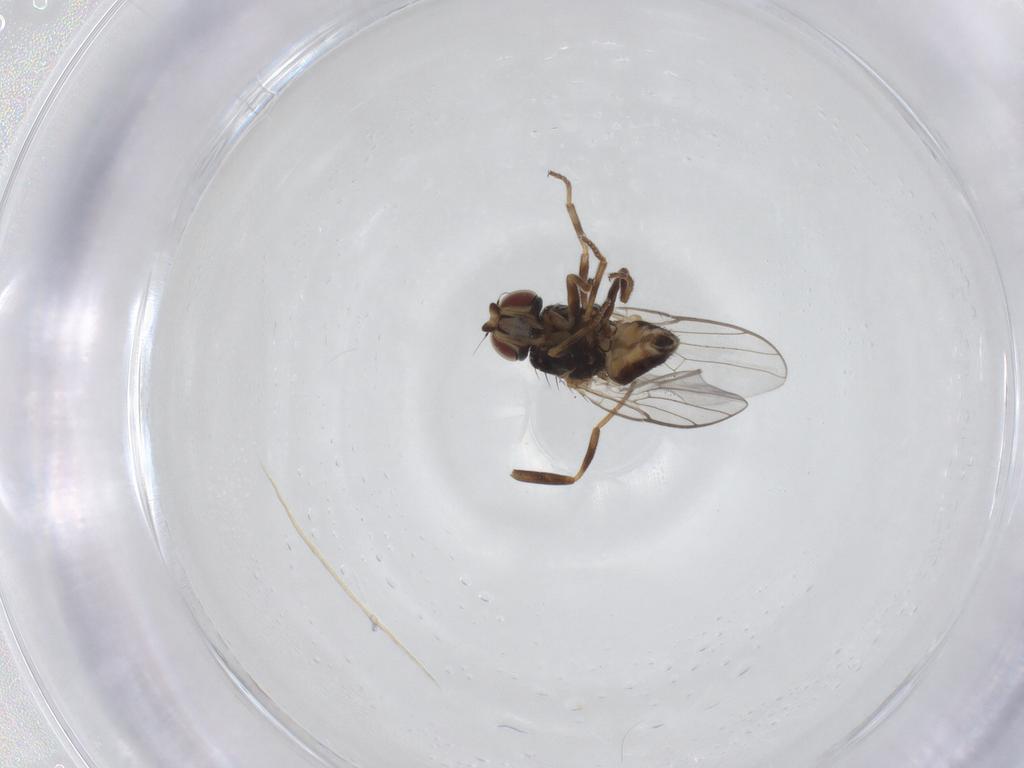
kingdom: Animalia
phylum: Arthropoda
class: Insecta
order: Diptera
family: Chloropidae
